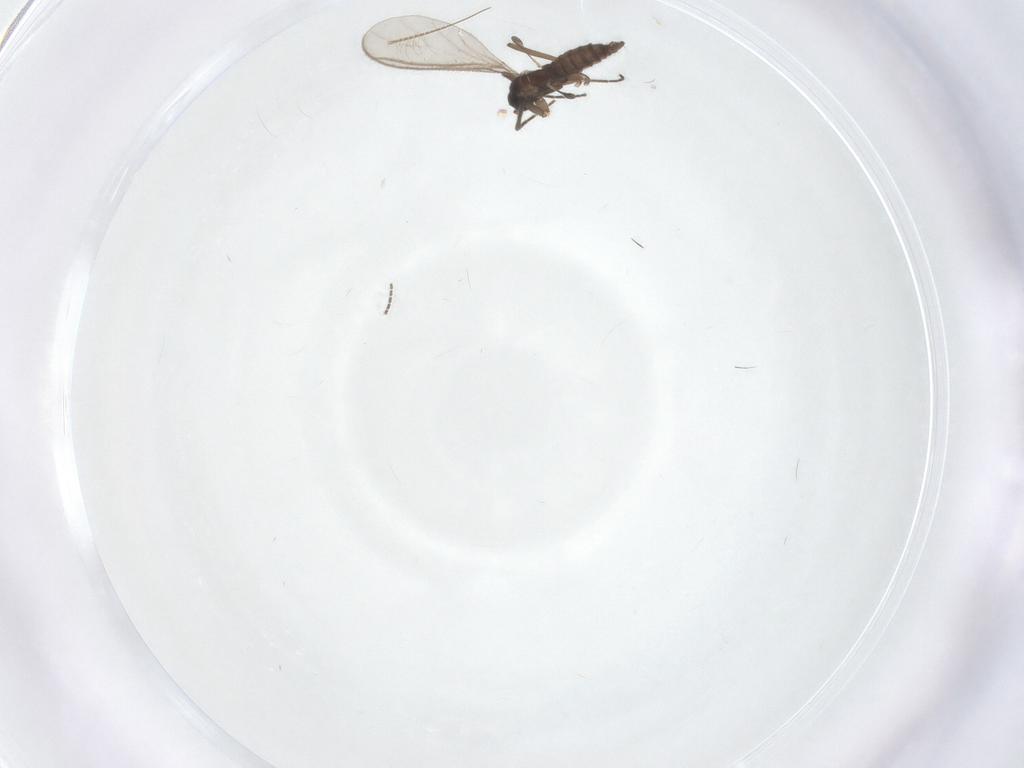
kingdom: Animalia
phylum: Arthropoda
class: Insecta
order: Diptera
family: Sciaridae
